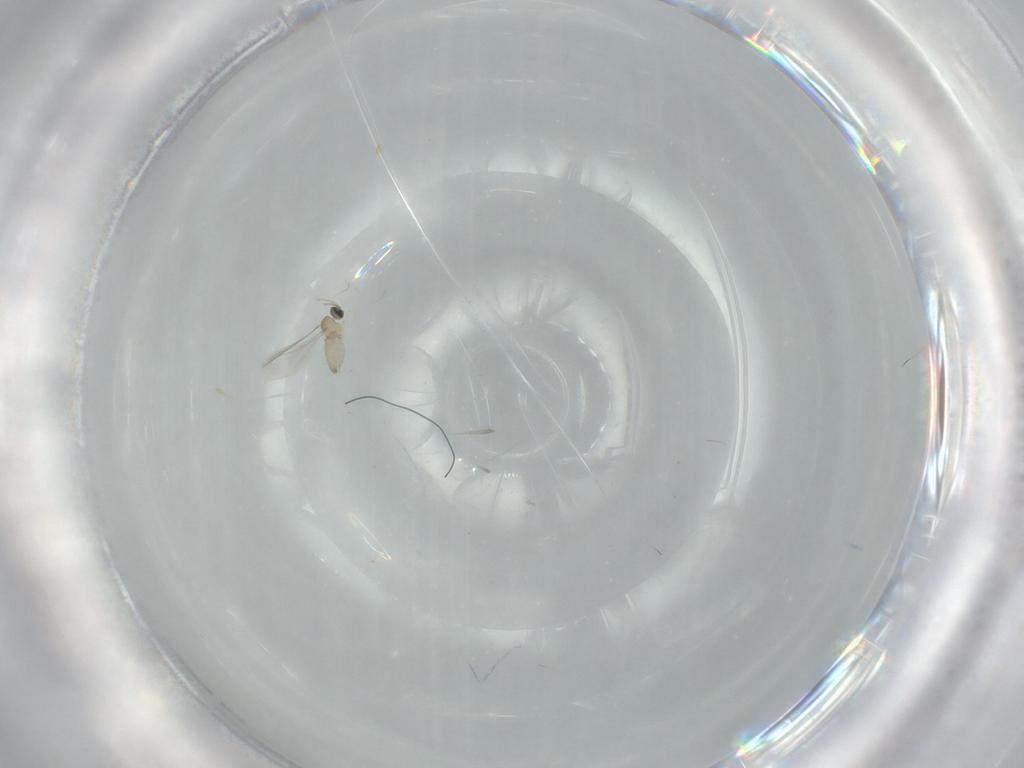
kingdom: Animalia
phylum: Arthropoda
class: Insecta
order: Diptera
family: Cecidomyiidae
